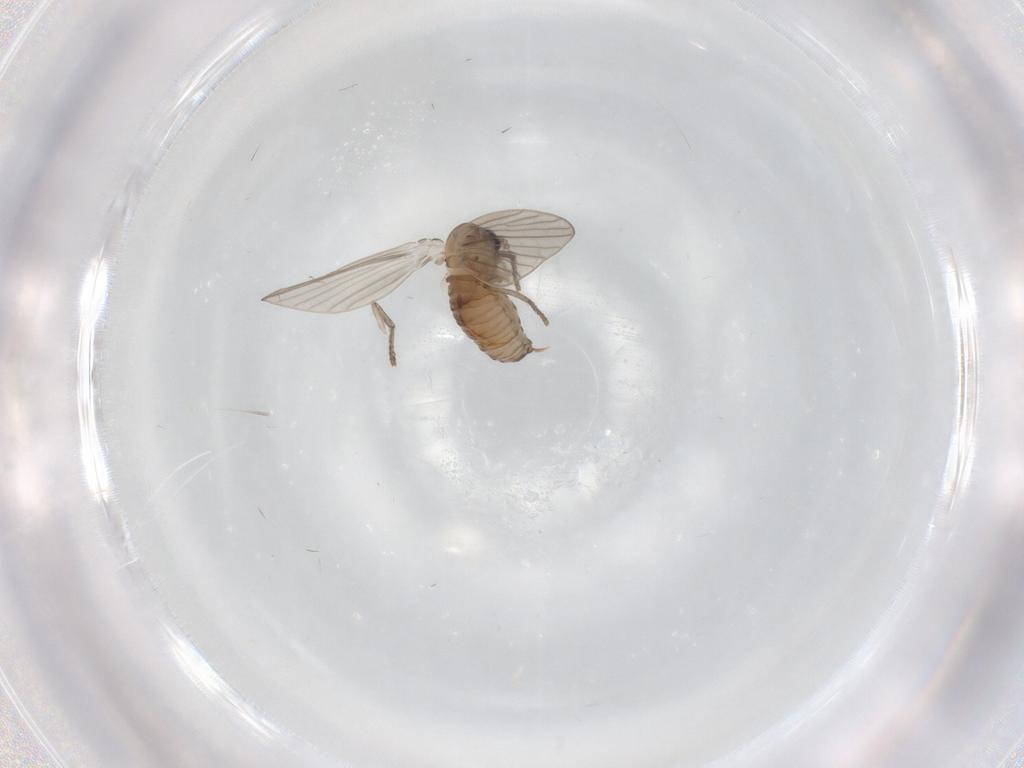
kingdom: Animalia
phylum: Arthropoda
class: Insecta
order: Diptera
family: Psychodidae
